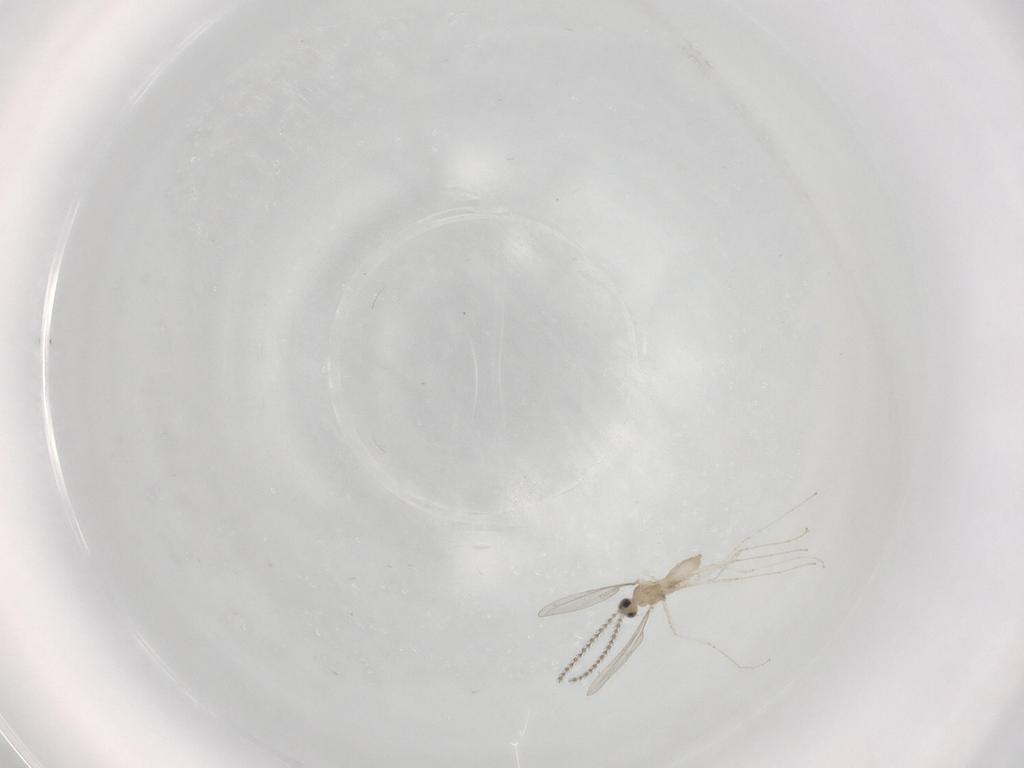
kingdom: Animalia
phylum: Arthropoda
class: Insecta
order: Diptera
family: Cecidomyiidae
